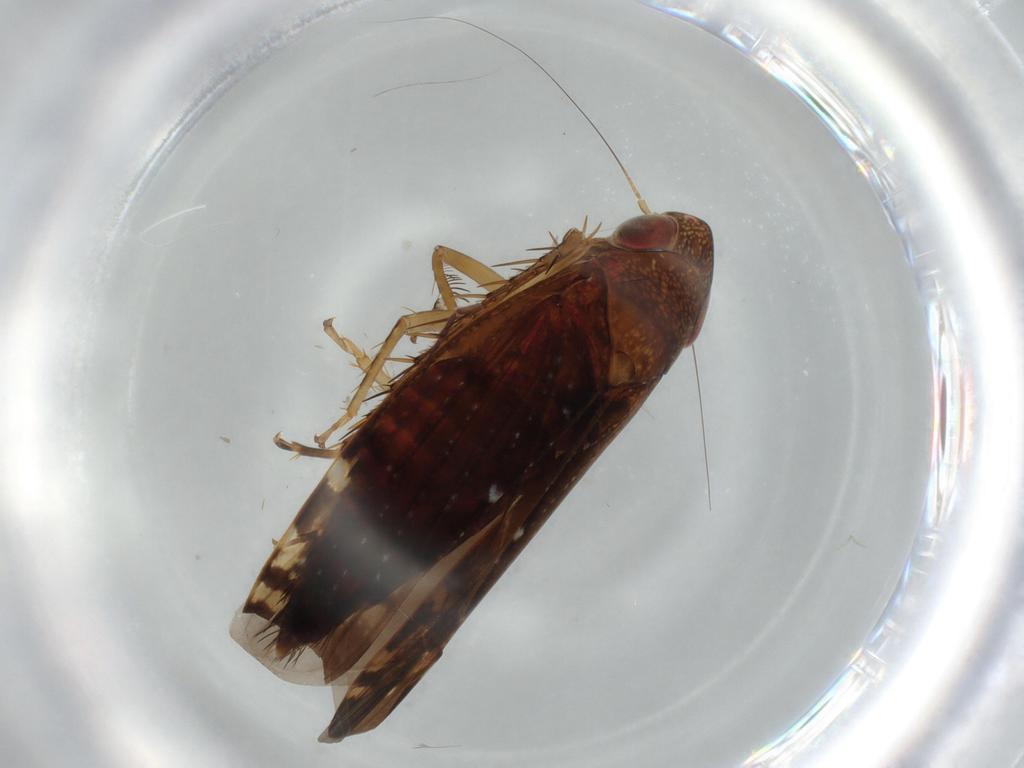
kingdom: Animalia
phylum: Arthropoda
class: Insecta
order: Hemiptera
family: Cicadellidae
